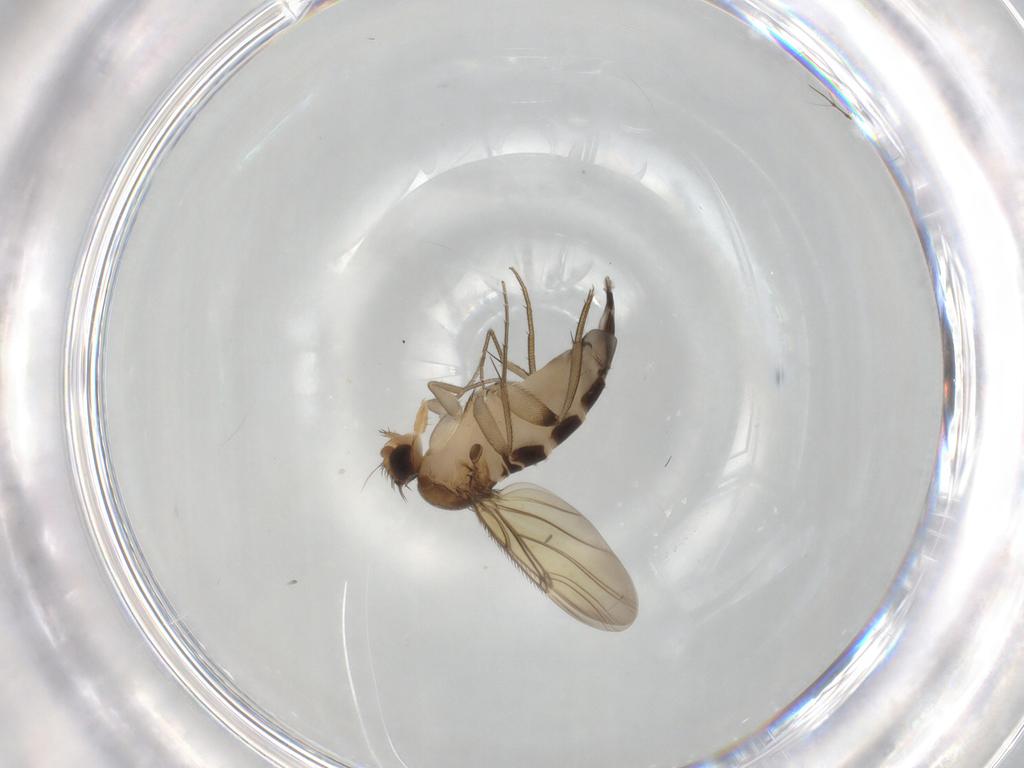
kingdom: Animalia
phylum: Arthropoda
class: Insecta
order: Diptera
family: Phoridae
